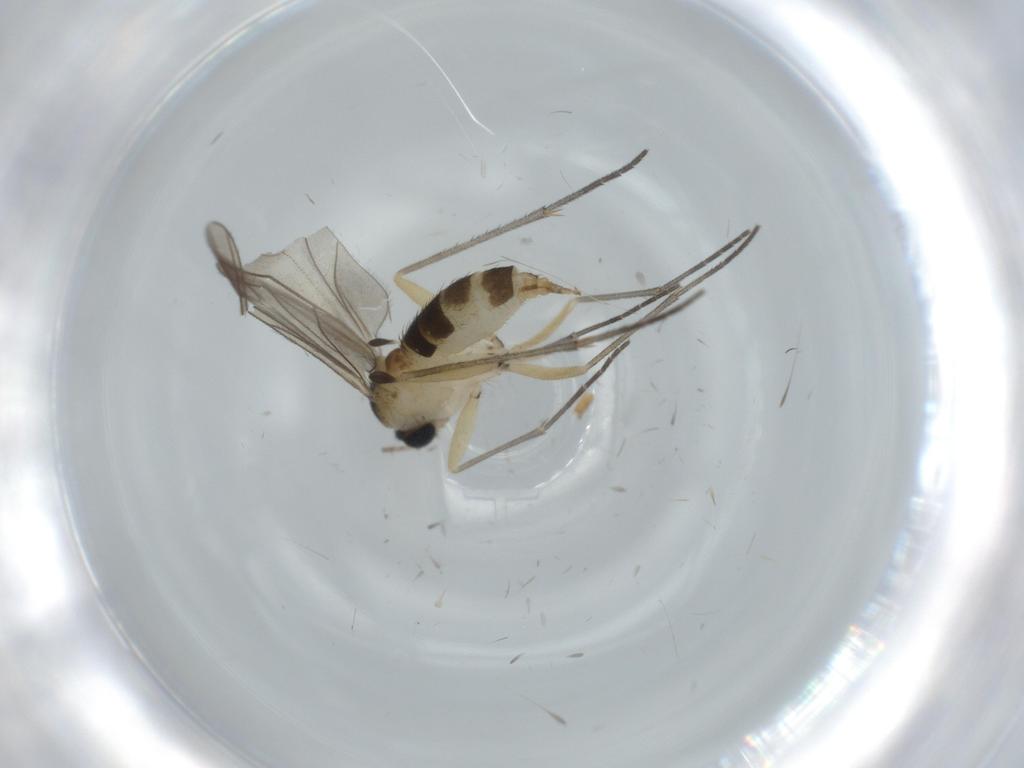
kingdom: Animalia
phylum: Arthropoda
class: Insecta
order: Diptera
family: Sciaridae
